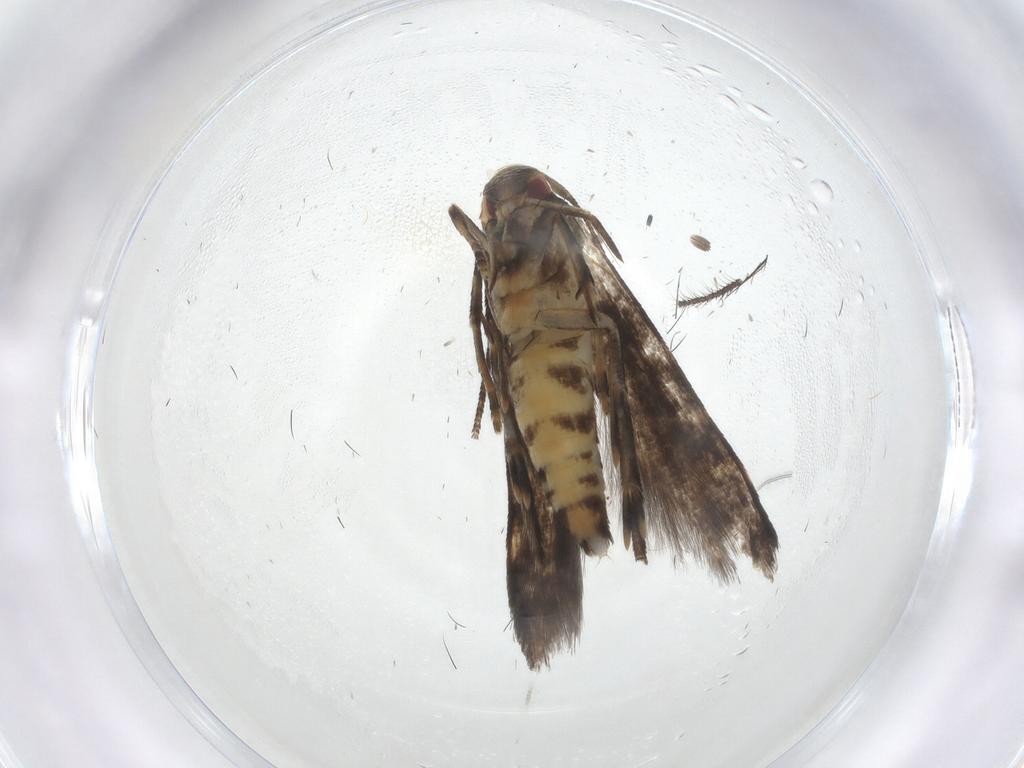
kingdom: Animalia
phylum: Arthropoda
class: Insecta
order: Lepidoptera
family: Momphidae
